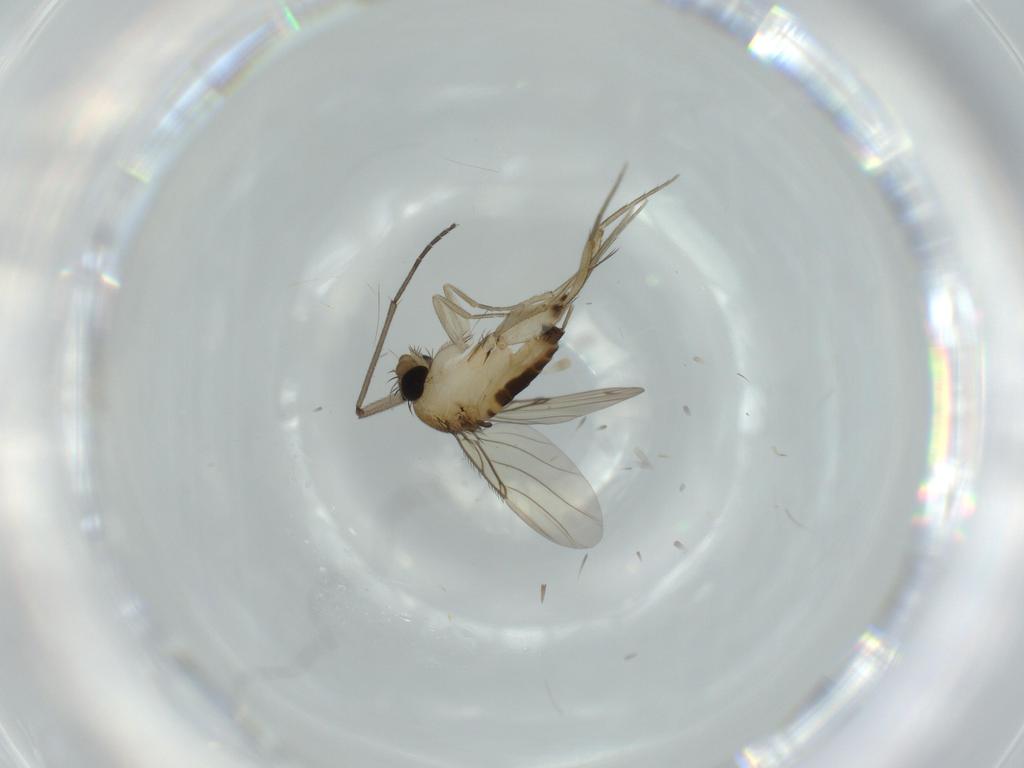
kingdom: Animalia
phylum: Arthropoda
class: Insecta
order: Diptera
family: Phoridae
